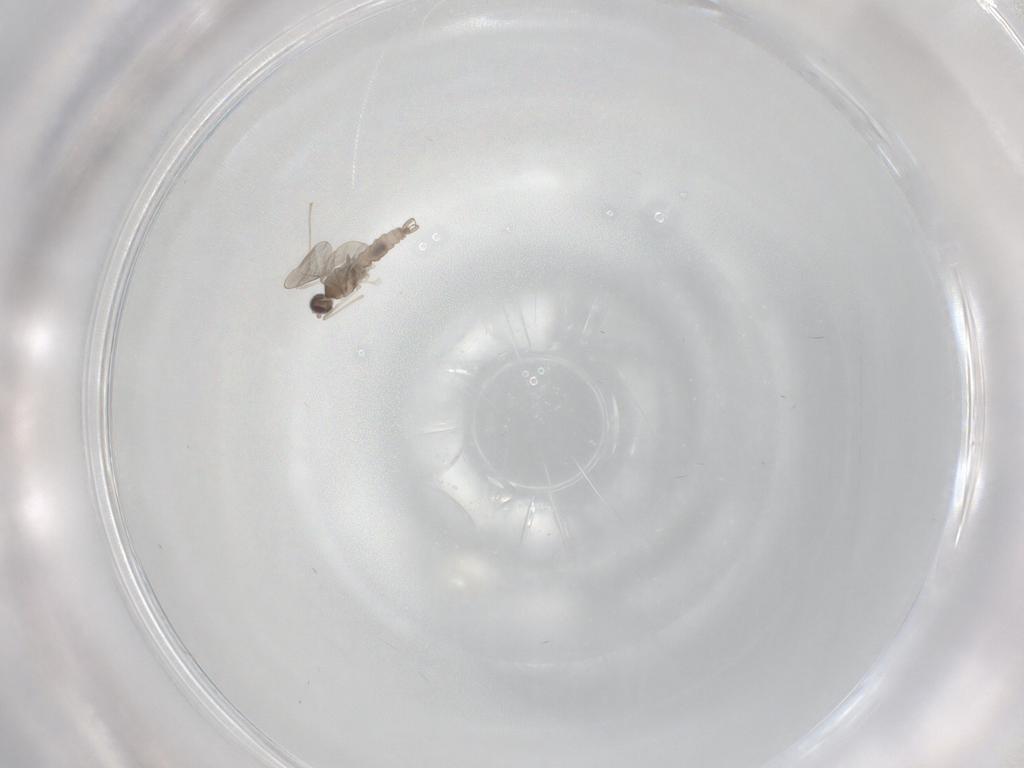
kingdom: Animalia
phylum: Arthropoda
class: Insecta
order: Diptera
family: Cecidomyiidae
